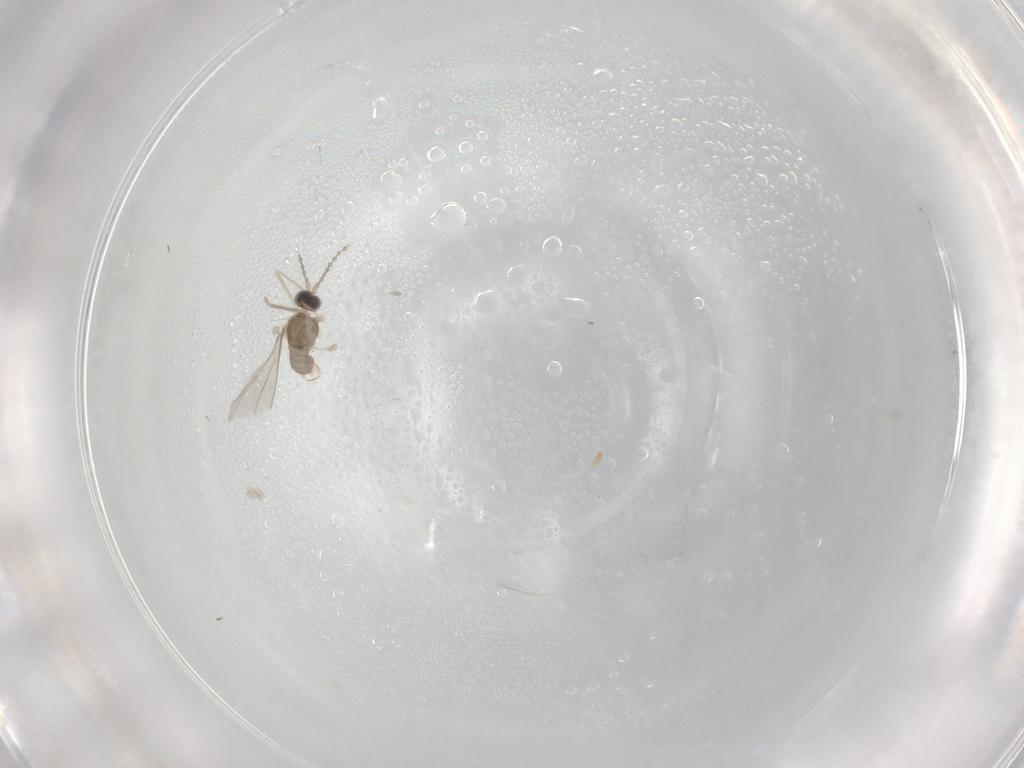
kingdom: Animalia
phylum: Arthropoda
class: Insecta
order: Diptera
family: Cecidomyiidae
